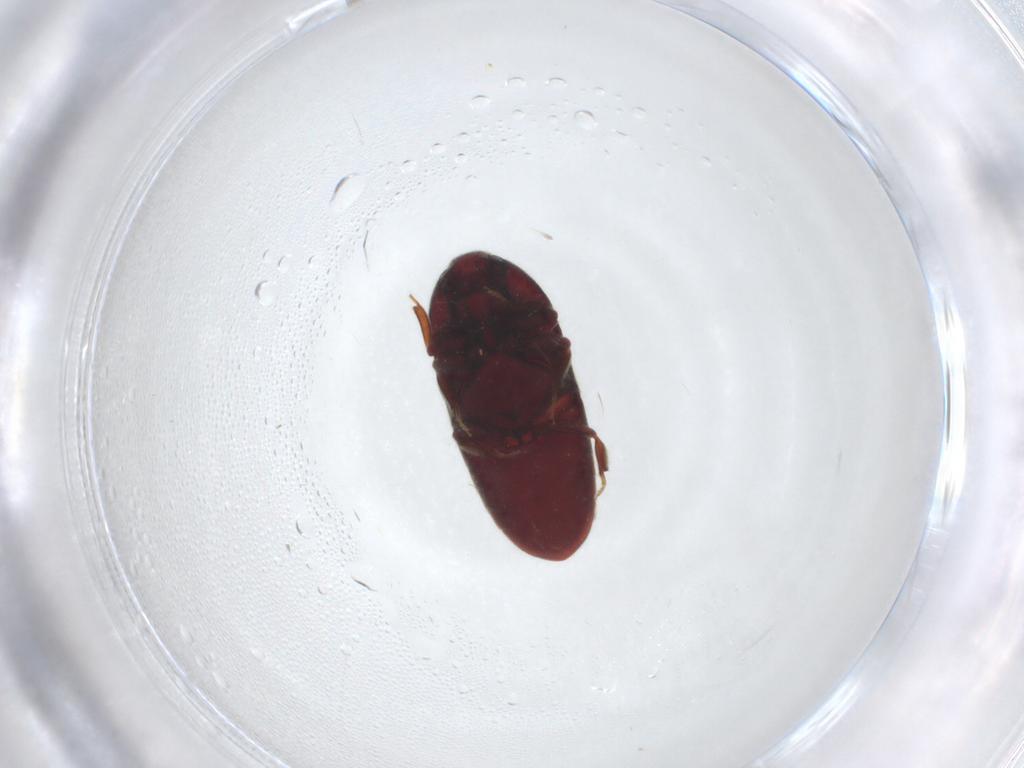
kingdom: Animalia
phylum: Arthropoda
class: Insecta
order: Coleoptera
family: Throscidae
